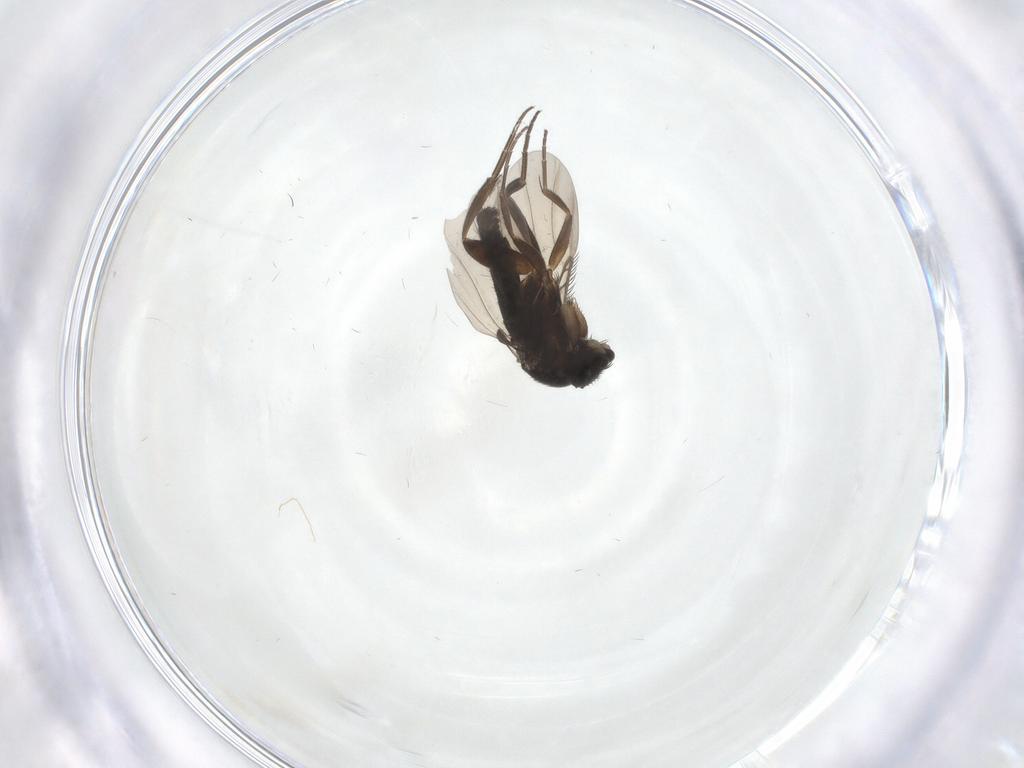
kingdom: Animalia
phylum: Arthropoda
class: Insecta
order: Diptera
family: Phoridae
